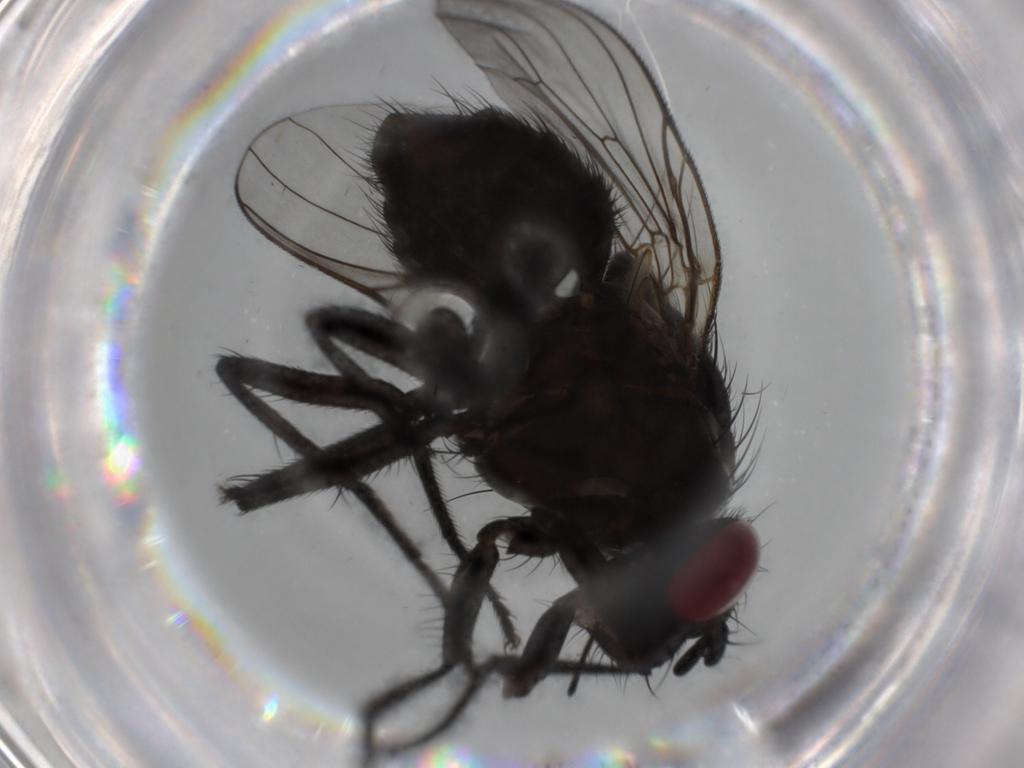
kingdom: Animalia
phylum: Arthropoda
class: Insecta
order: Diptera
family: Muscidae
